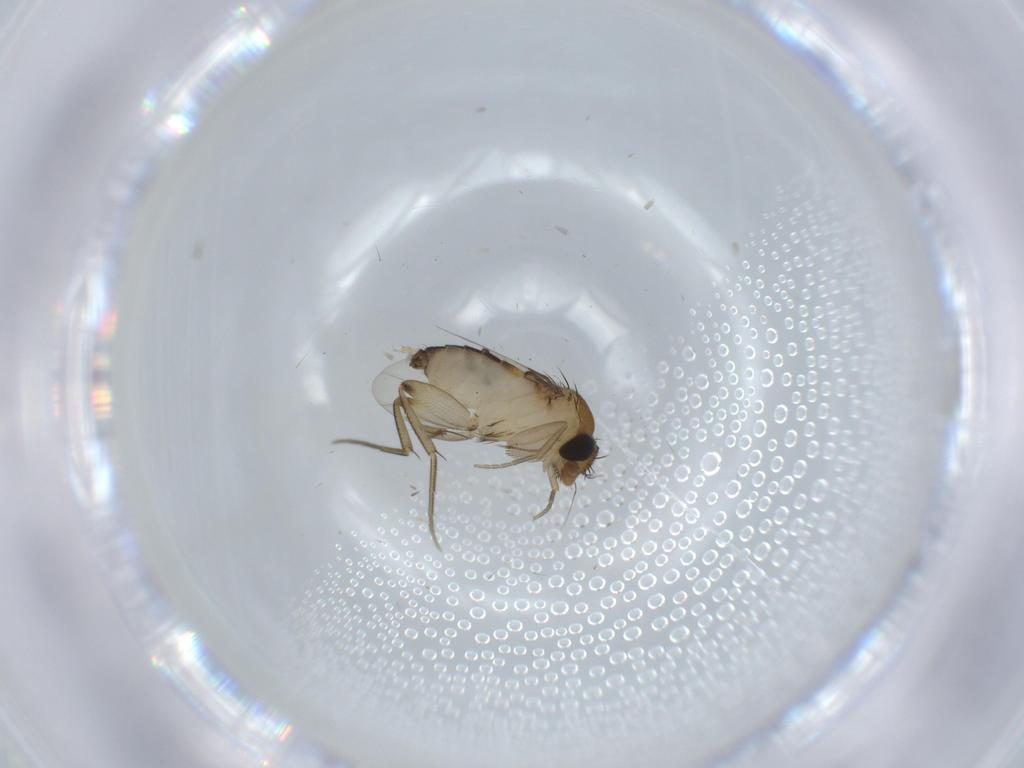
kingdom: Animalia
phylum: Arthropoda
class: Insecta
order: Diptera
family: Phoridae
